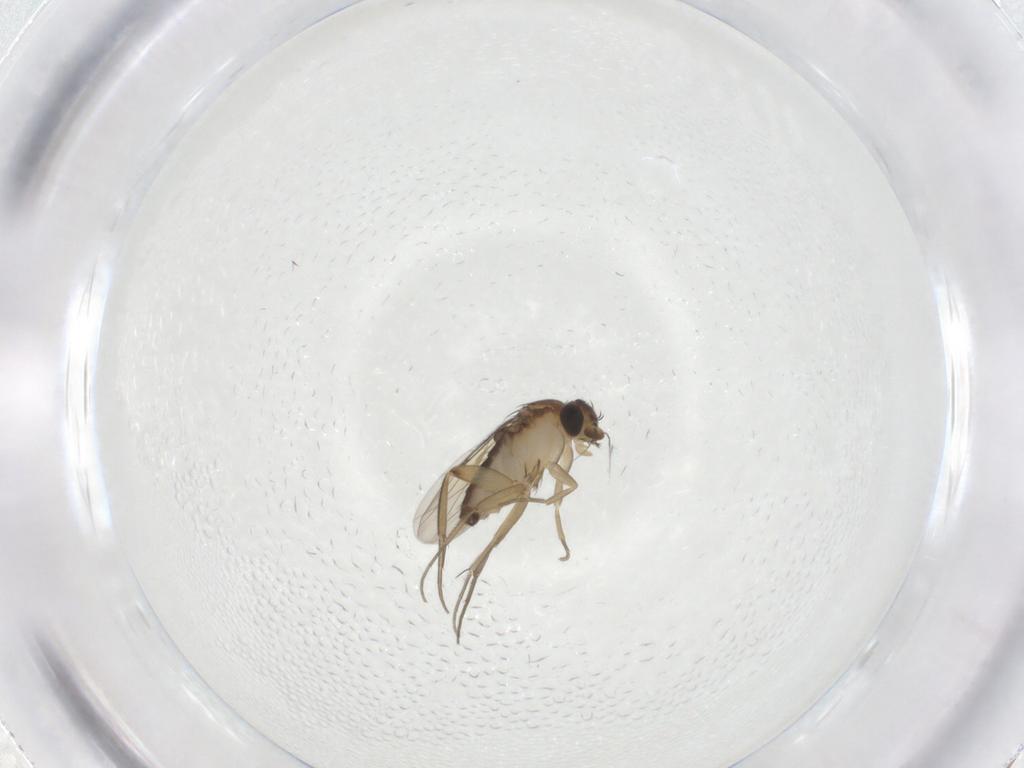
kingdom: Animalia
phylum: Arthropoda
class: Insecta
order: Diptera
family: Phoridae
